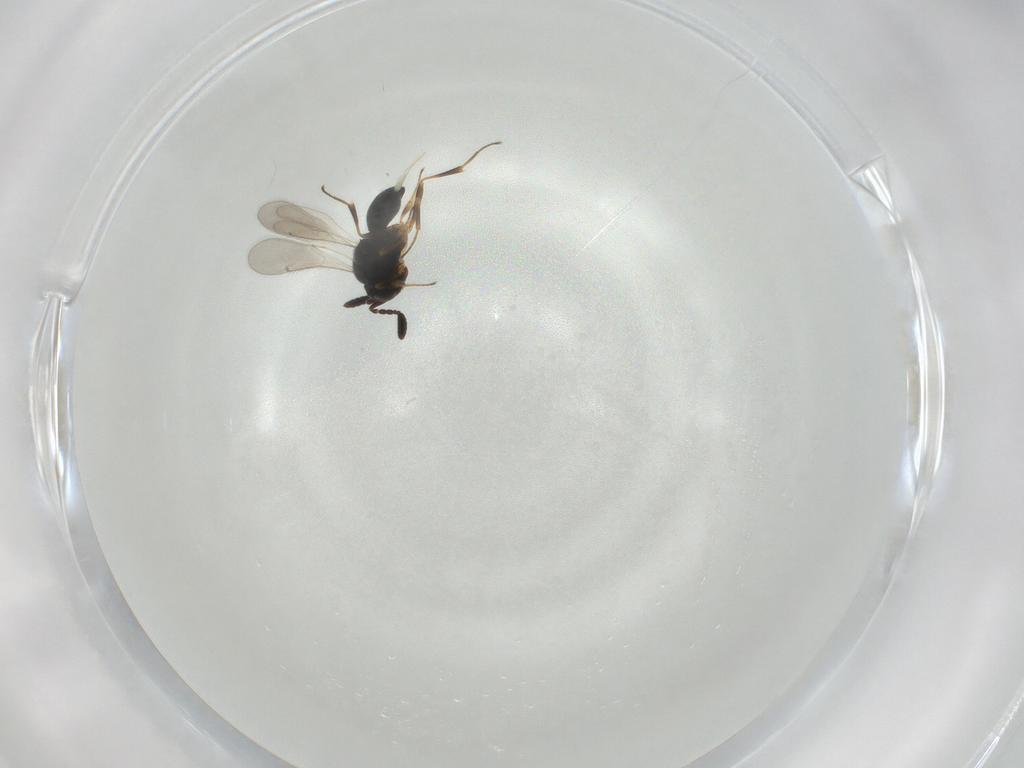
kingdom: Animalia
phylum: Arthropoda
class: Insecta
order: Hymenoptera
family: Scelionidae
